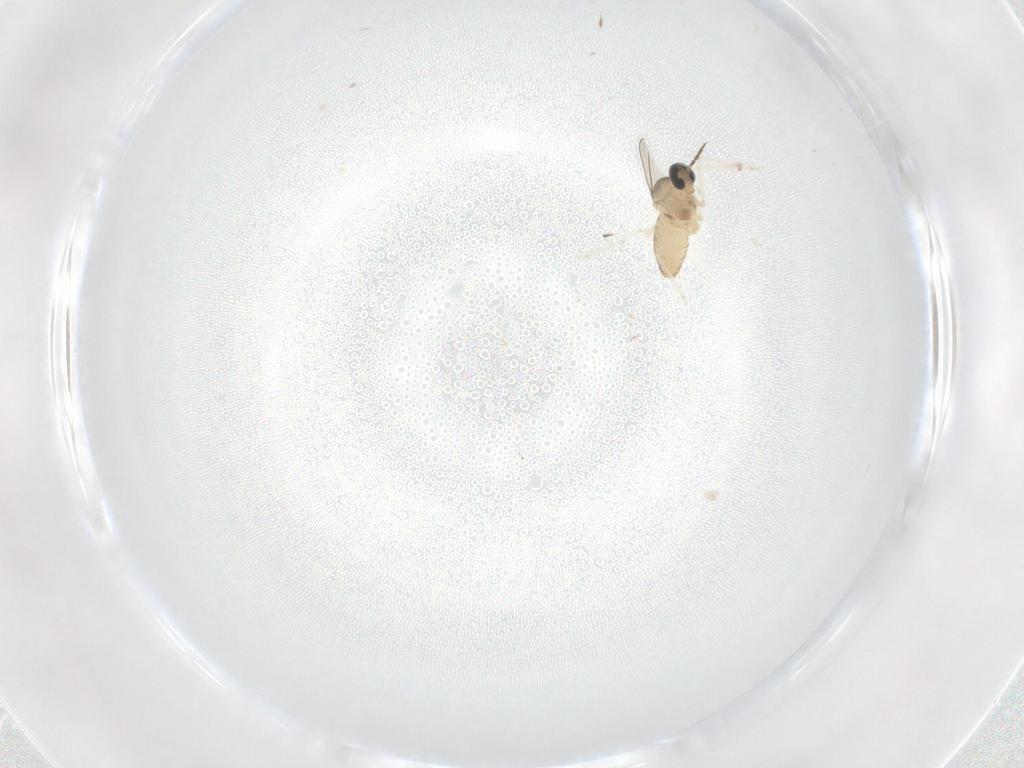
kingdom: Animalia
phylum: Arthropoda
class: Insecta
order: Diptera
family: Cecidomyiidae
